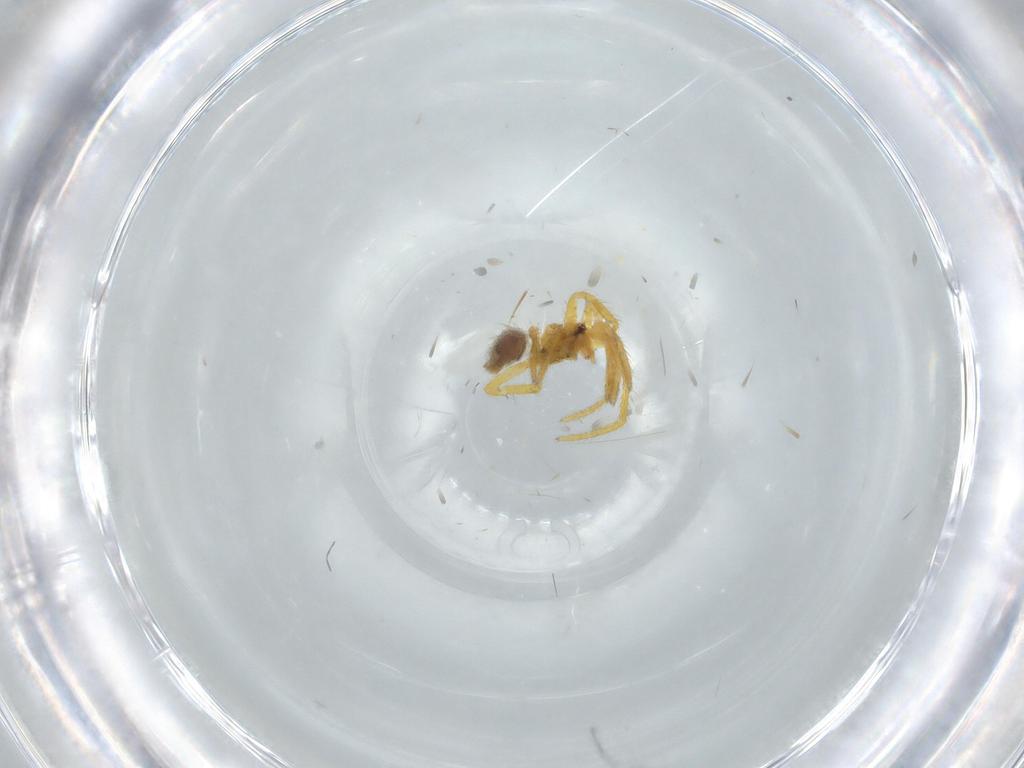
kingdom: Animalia
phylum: Arthropoda
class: Arachnida
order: Araneae
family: Theridiidae
